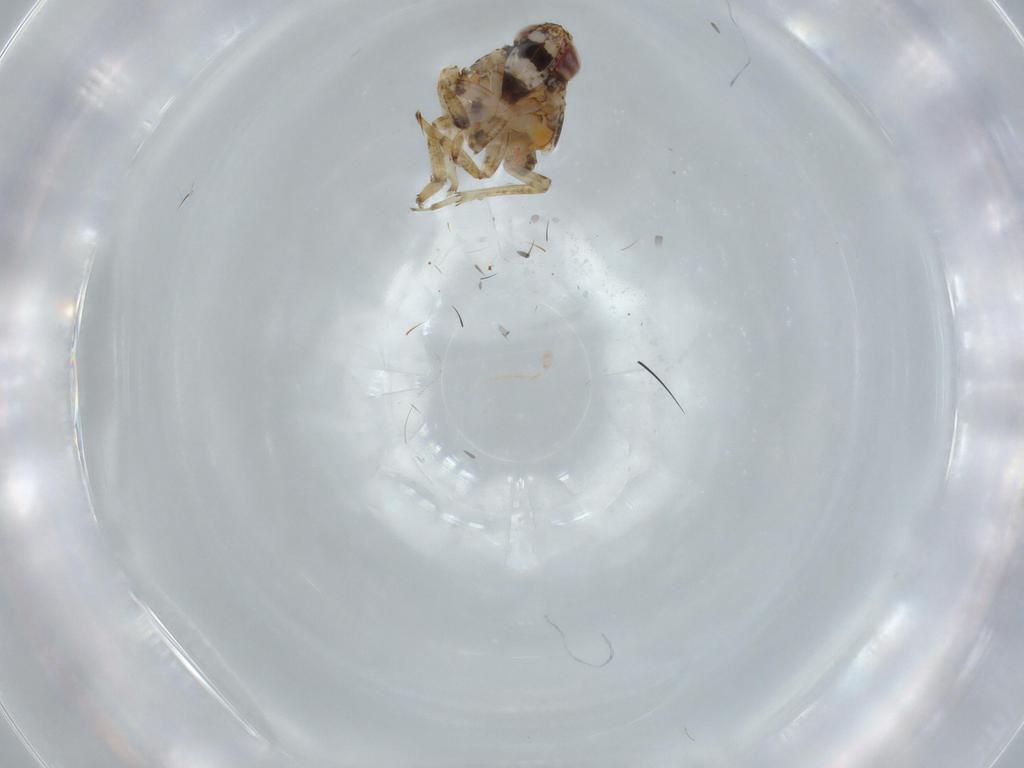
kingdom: Animalia
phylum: Arthropoda
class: Insecta
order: Hemiptera
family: Issidae
